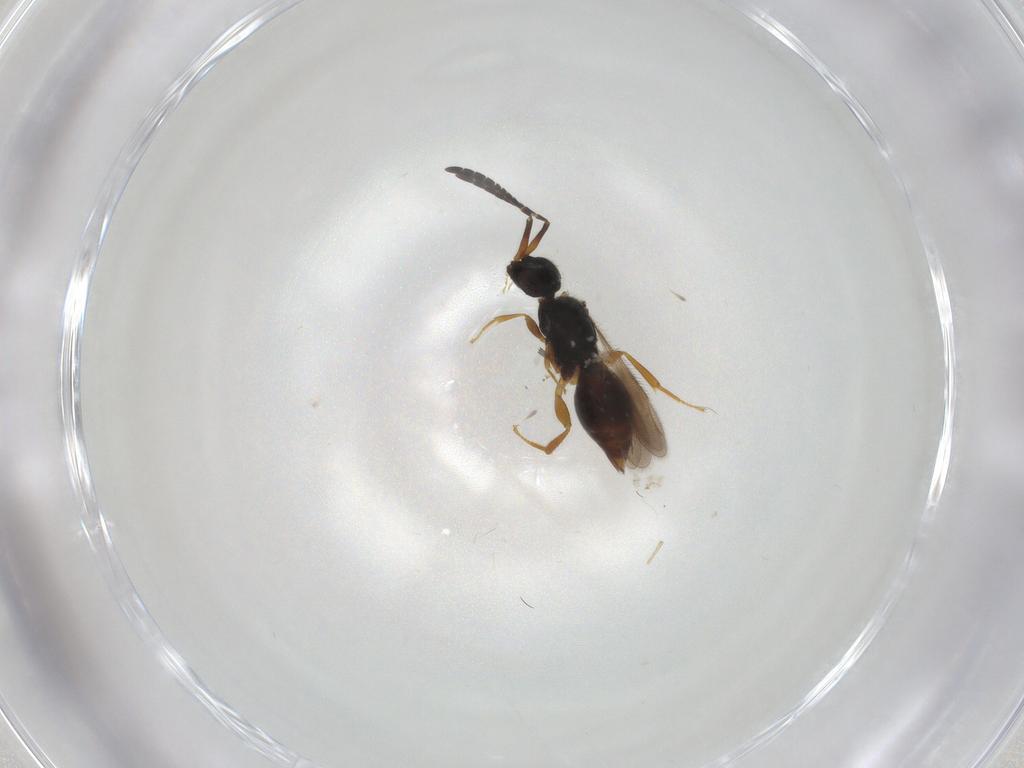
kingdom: Animalia
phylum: Arthropoda
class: Insecta
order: Hymenoptera
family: Ceraphronidae
